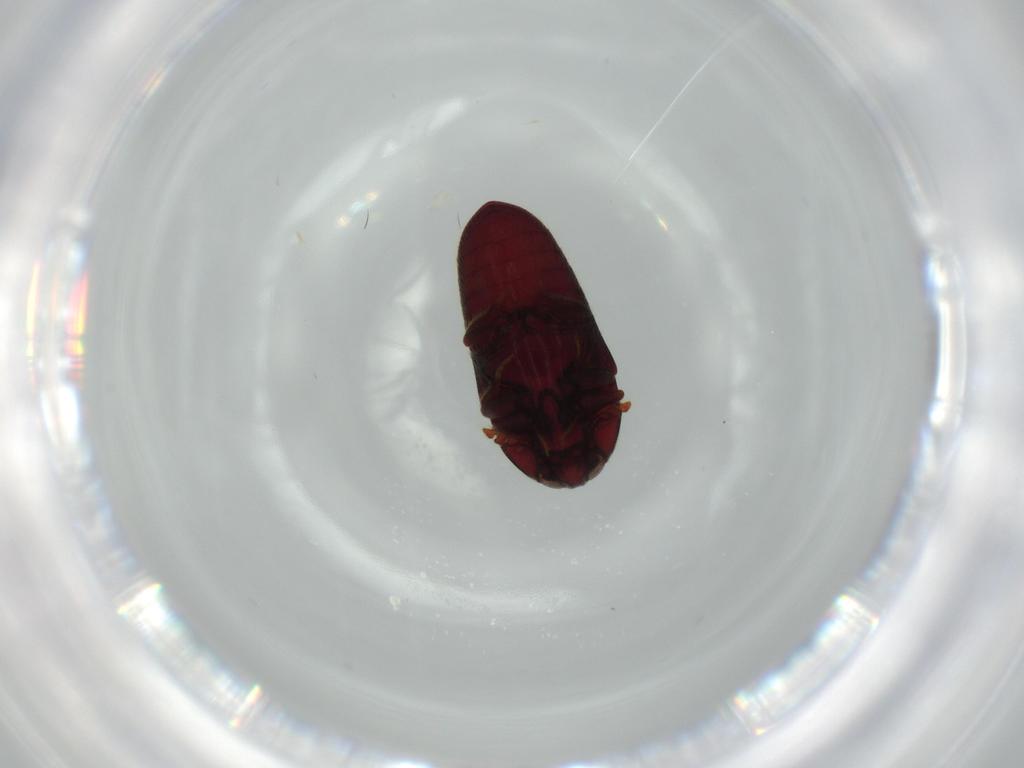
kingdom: Animalia
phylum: Arthropoda
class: Insecta
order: Coleoptera
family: Throscidae
